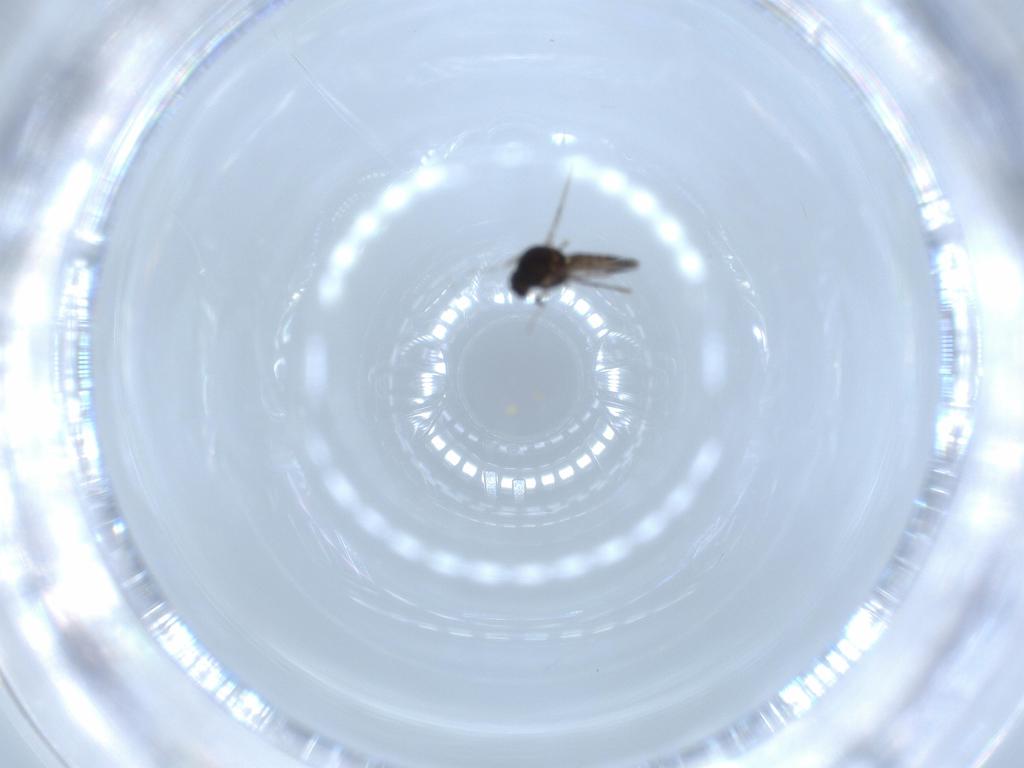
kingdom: Animalia
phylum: Arthropoda
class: Insecta
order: Diptera
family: Ceratopogonidae
